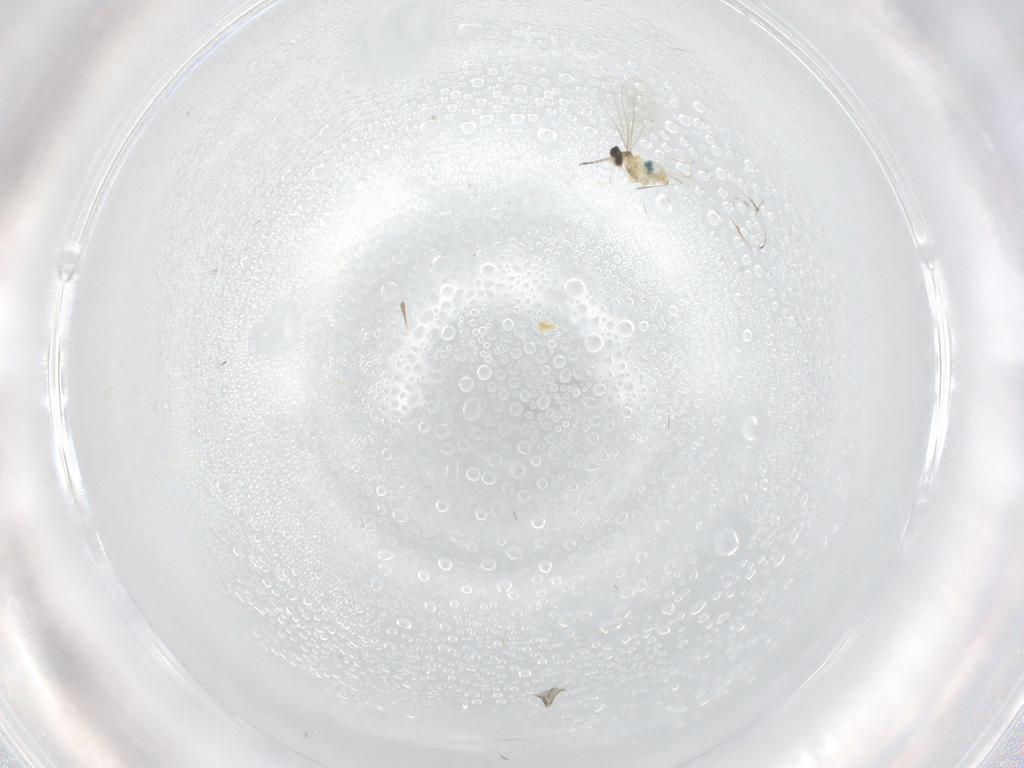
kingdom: Animalia
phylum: Arthropoda
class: Insecta
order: Diptera
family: Cecidomyiidae
